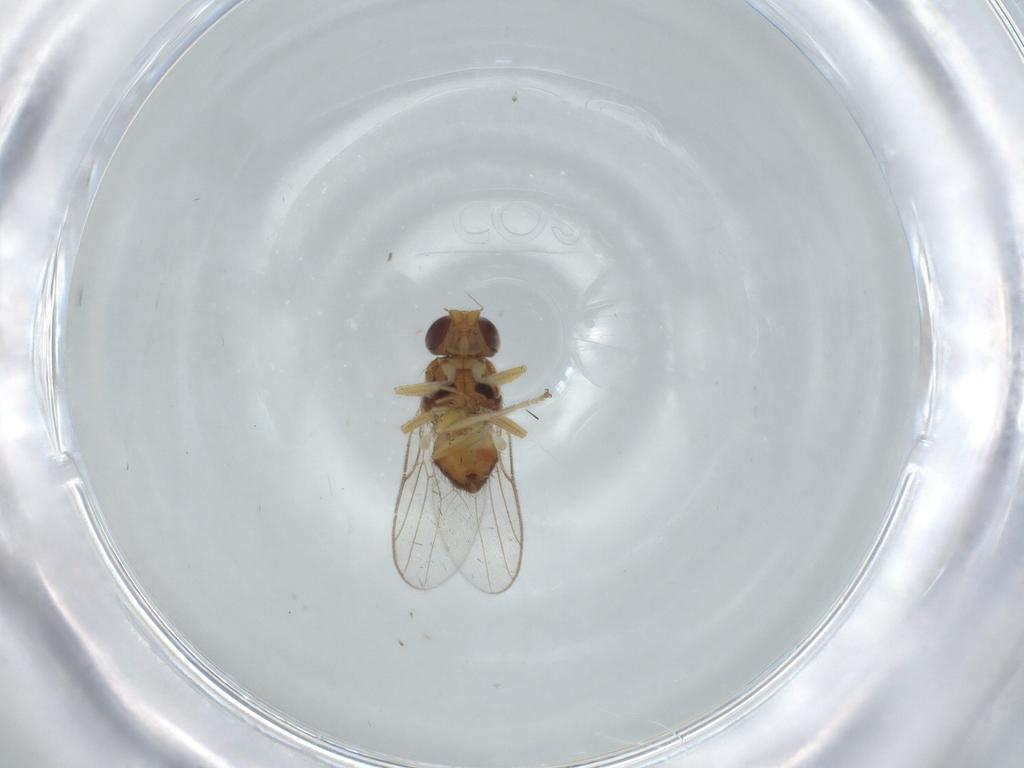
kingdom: Animalia
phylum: Arthropoda
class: Insecta
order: Diptera
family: Chloropidae
